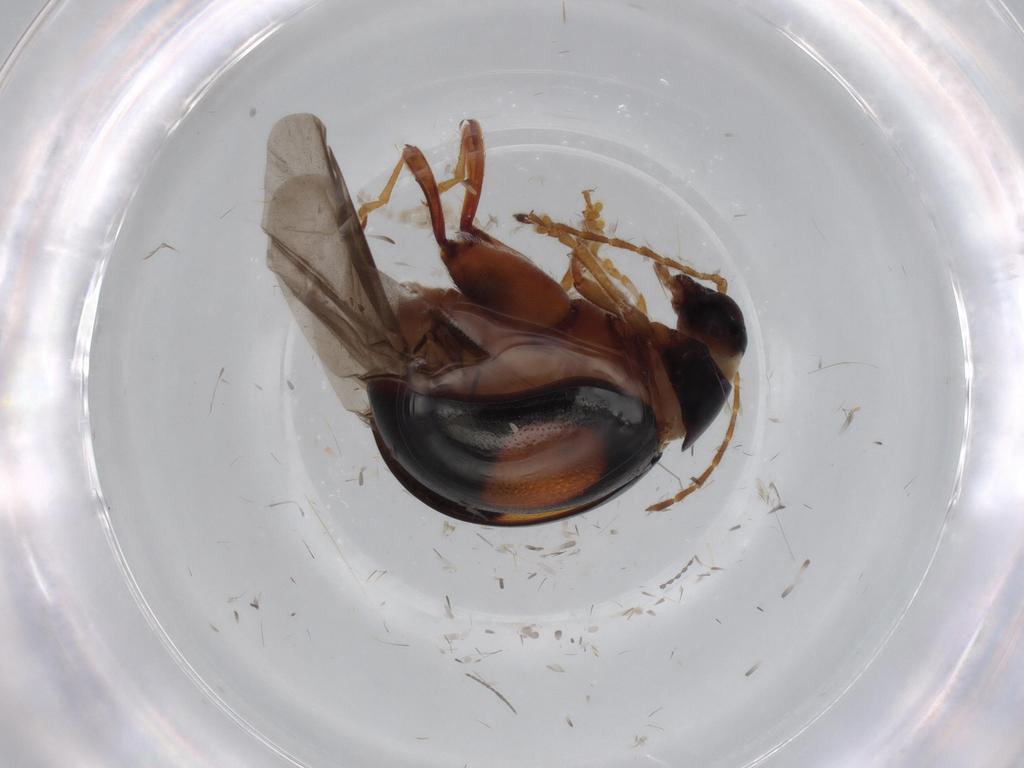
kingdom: Animalia
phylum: Arthropoda
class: Insecta
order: Coleoptera
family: Chrysomelidae
